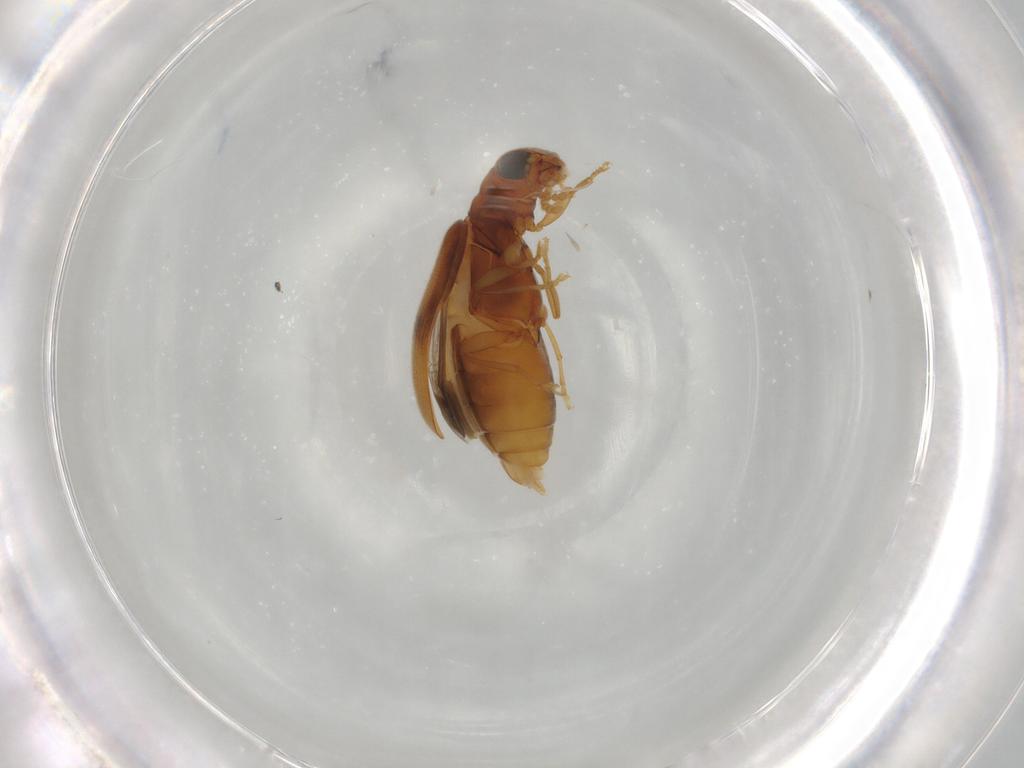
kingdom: Animalia
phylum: Arthropoda
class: Insecta
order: Coleoptera
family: Mycteridae
